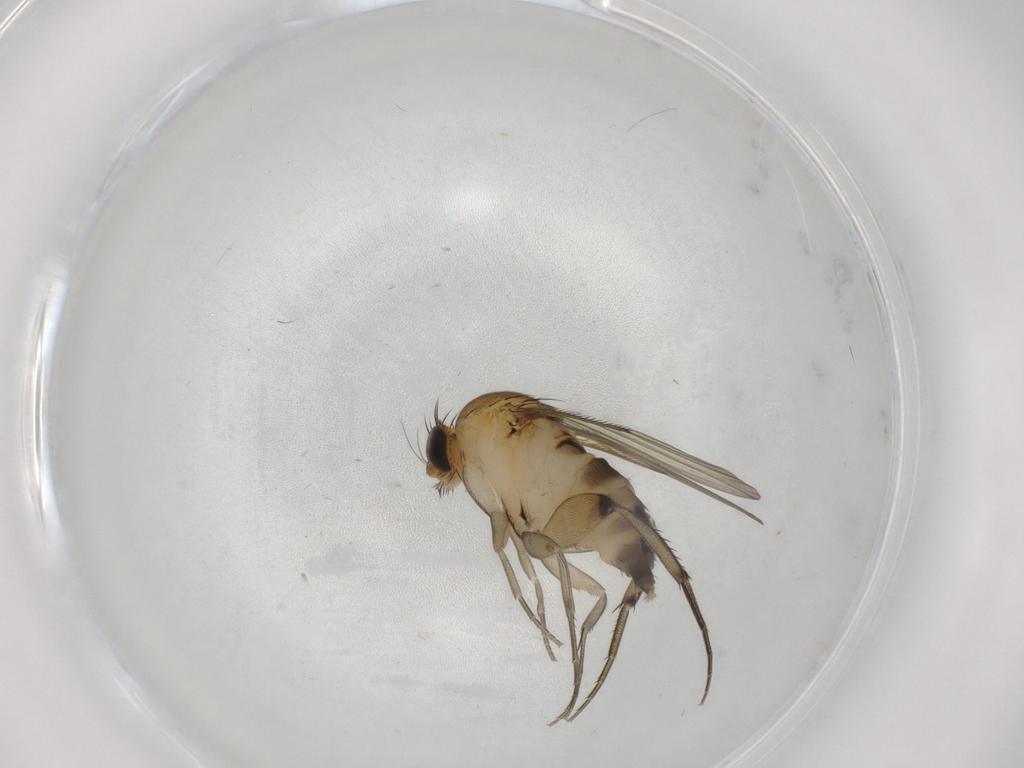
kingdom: Animalia
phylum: Arthropoda
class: Insecta
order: Diptera
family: Phoridae
